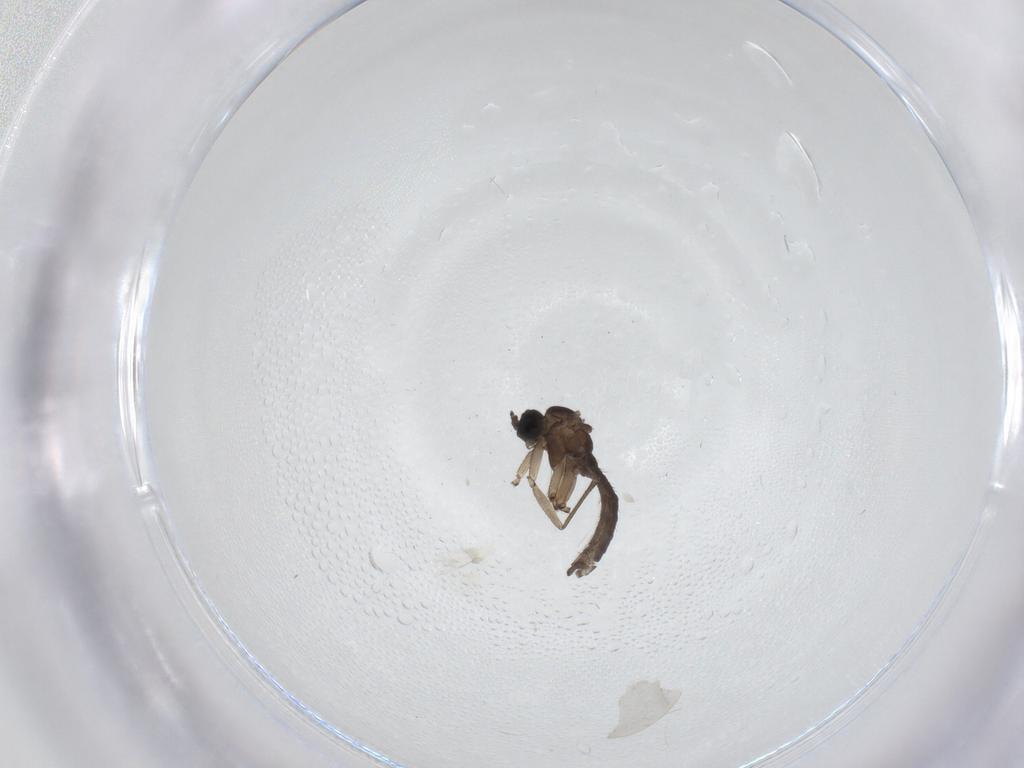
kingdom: Animalia
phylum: Arthropoda
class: Insecta
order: Diptera
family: Sciaridae
